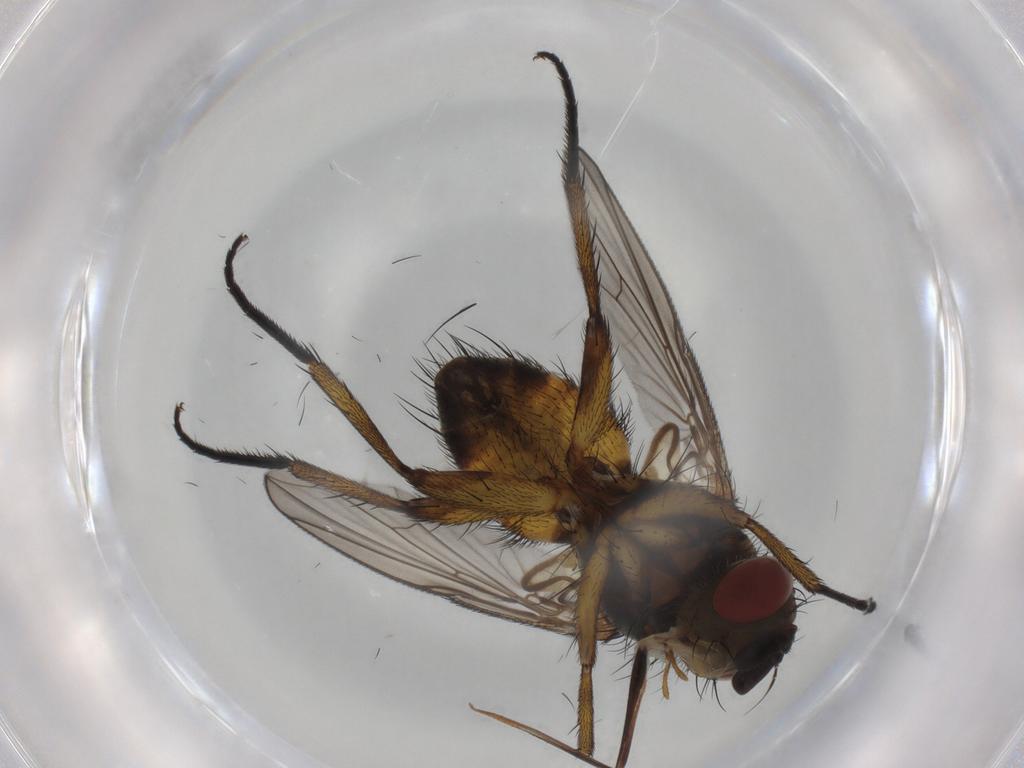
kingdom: Animalia
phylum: Arthropoda
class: Insecta
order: Diptera
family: Tachinidae
